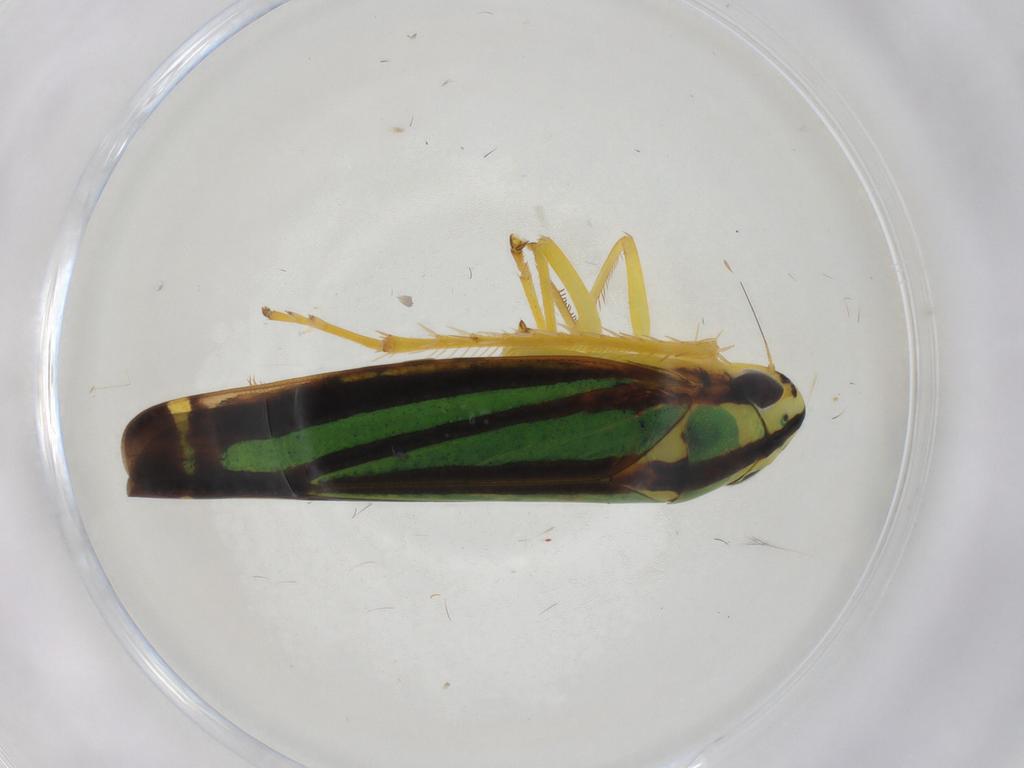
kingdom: Animalia
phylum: Arthropoda
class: Insecta
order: Hemiptera
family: Cicadellidae
